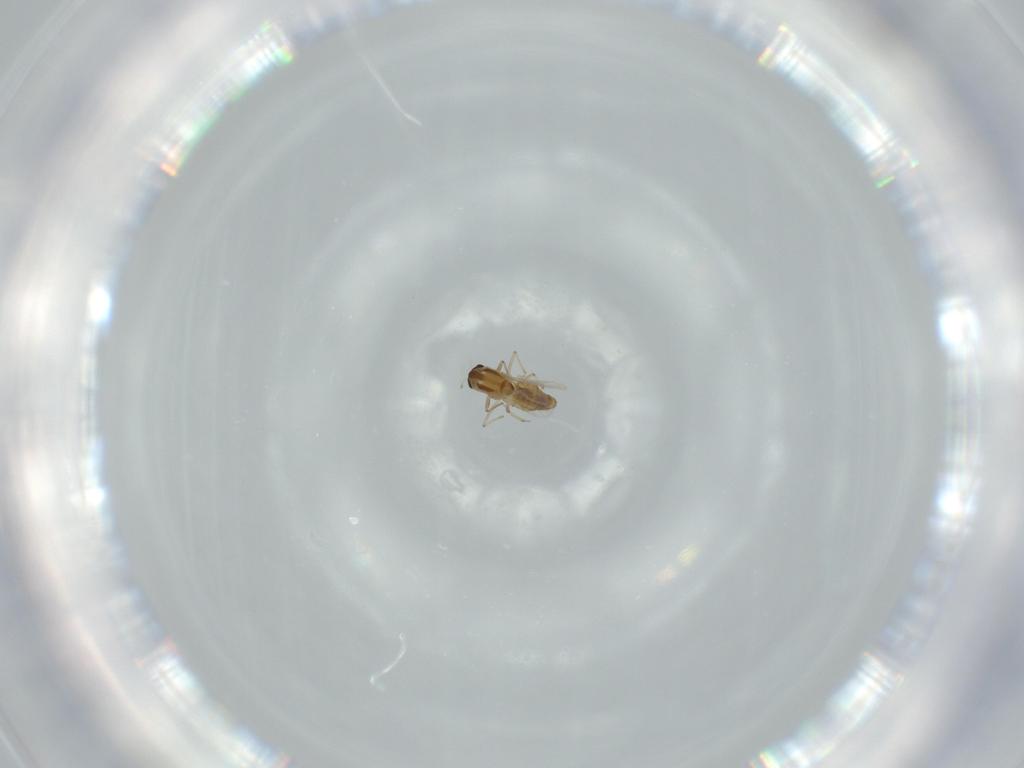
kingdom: Animalia
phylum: Arthropoda
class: Insecta
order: Diptera
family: Chironomidae
